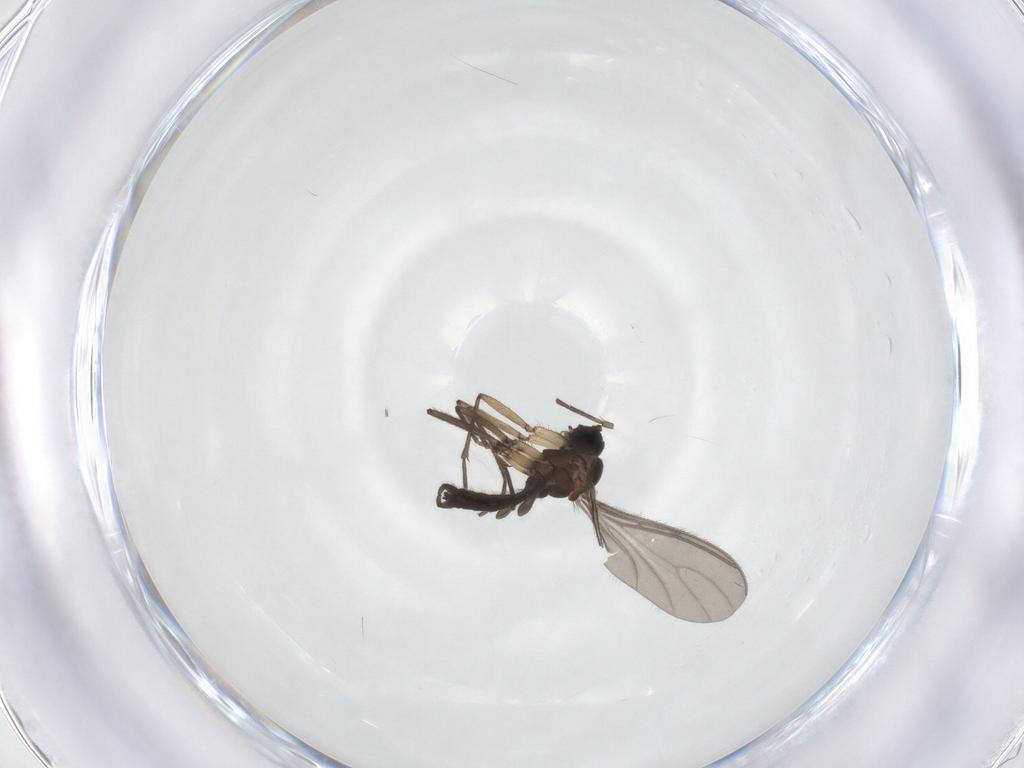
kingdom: Animalia
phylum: Arthropoda
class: Insecta
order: Diptera
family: Sciaridae
